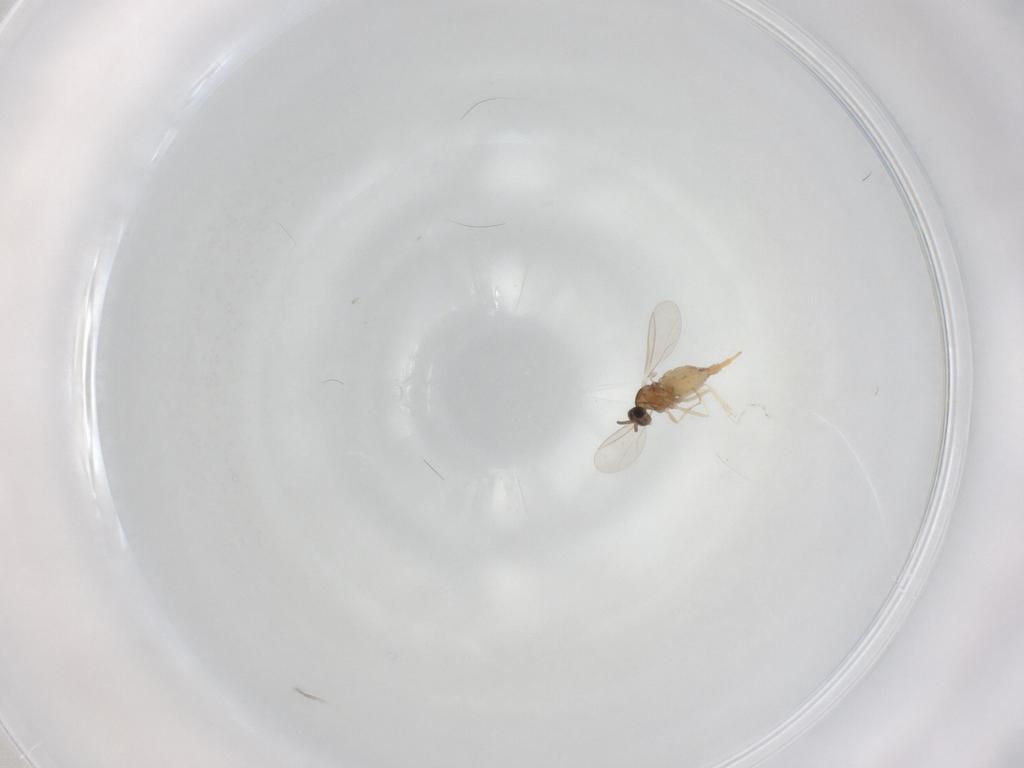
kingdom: Animalia
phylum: Arthropoda
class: Insecta
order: Diptera
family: Cecidomyiidae
